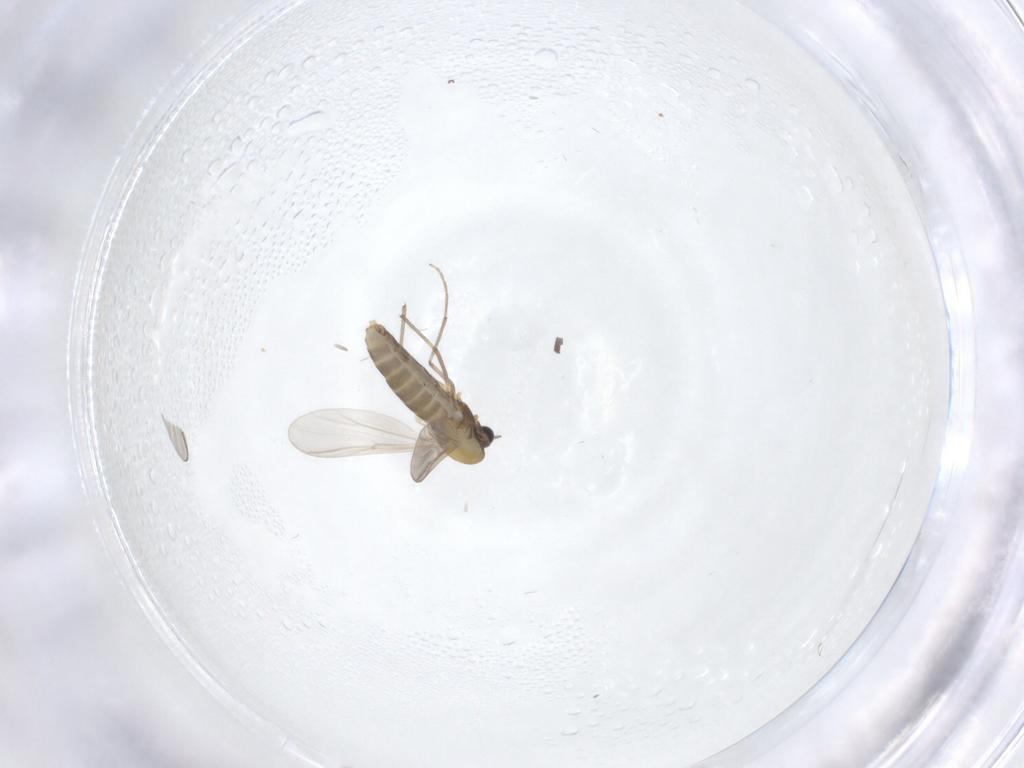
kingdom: Animalia
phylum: Arthropoda
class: Insecta
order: Diptera
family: Chironomidae
